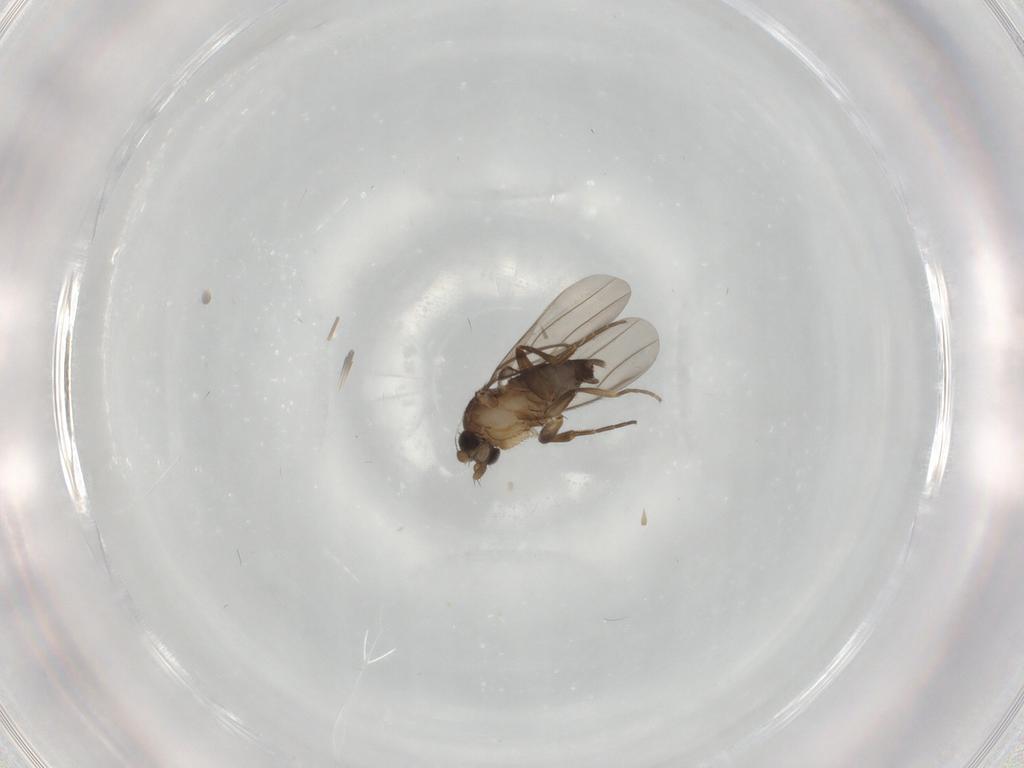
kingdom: Animalia
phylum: Arthropoda
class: Insecta
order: Diptera
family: Phoridae
